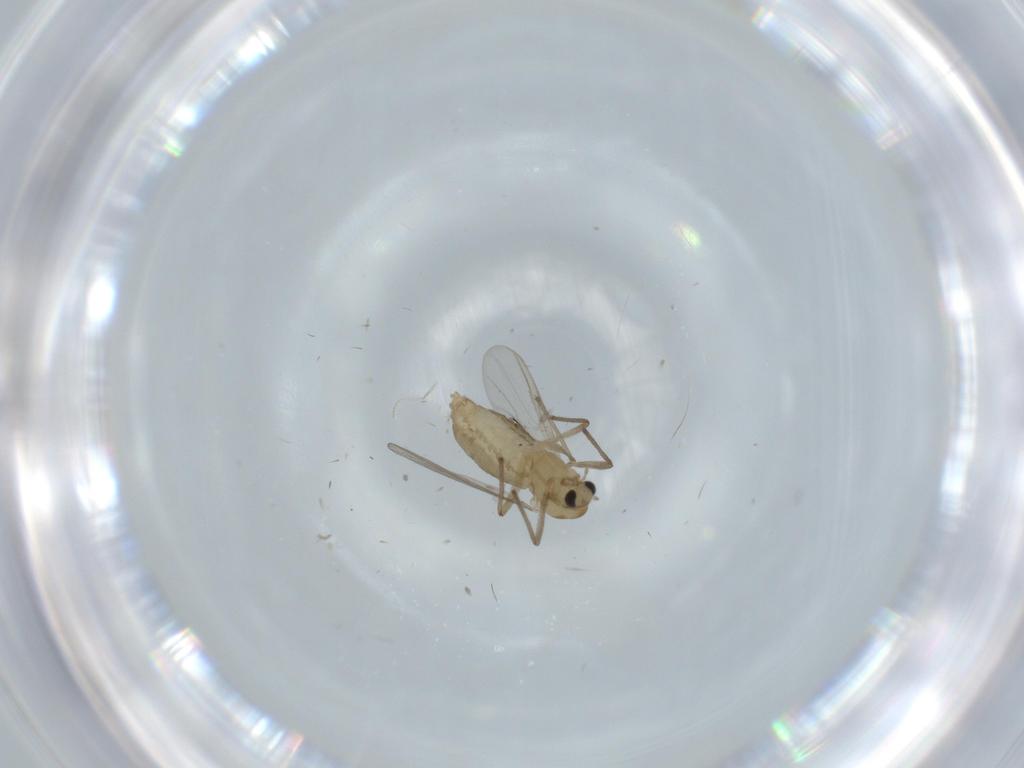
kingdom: Animalia
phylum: Arthropoda
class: Insecta
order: Diptera
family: Chironomidae
